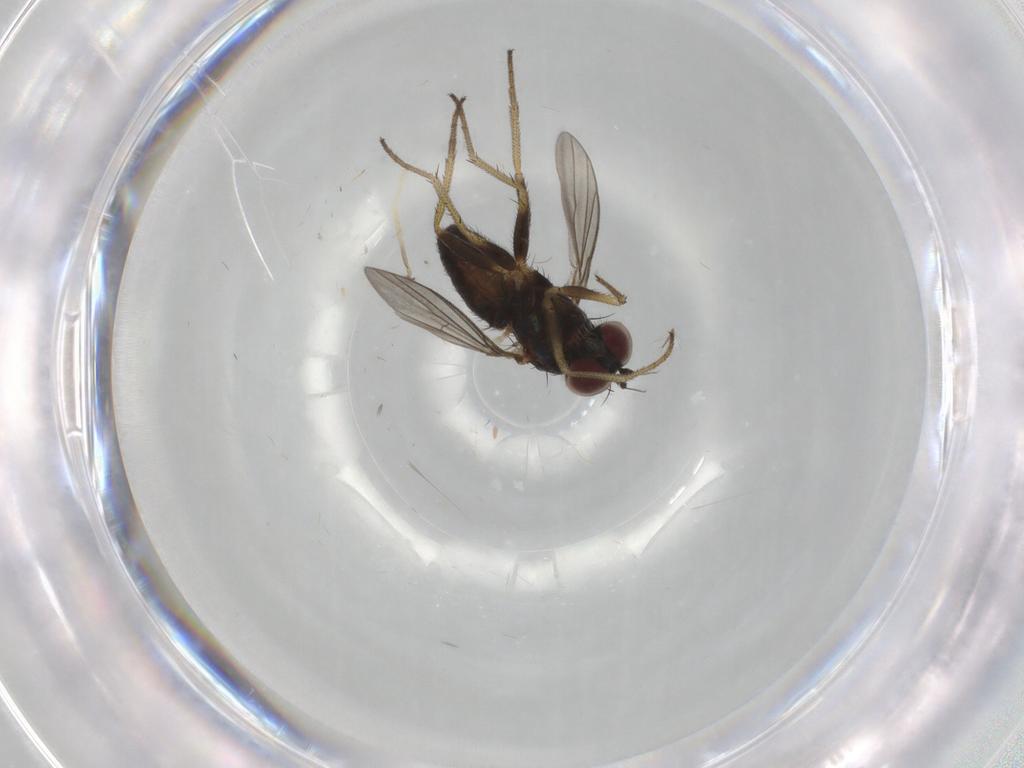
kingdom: Animalia
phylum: Arthropoda
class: Insecta
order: Diptera
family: Dolichopodidae
